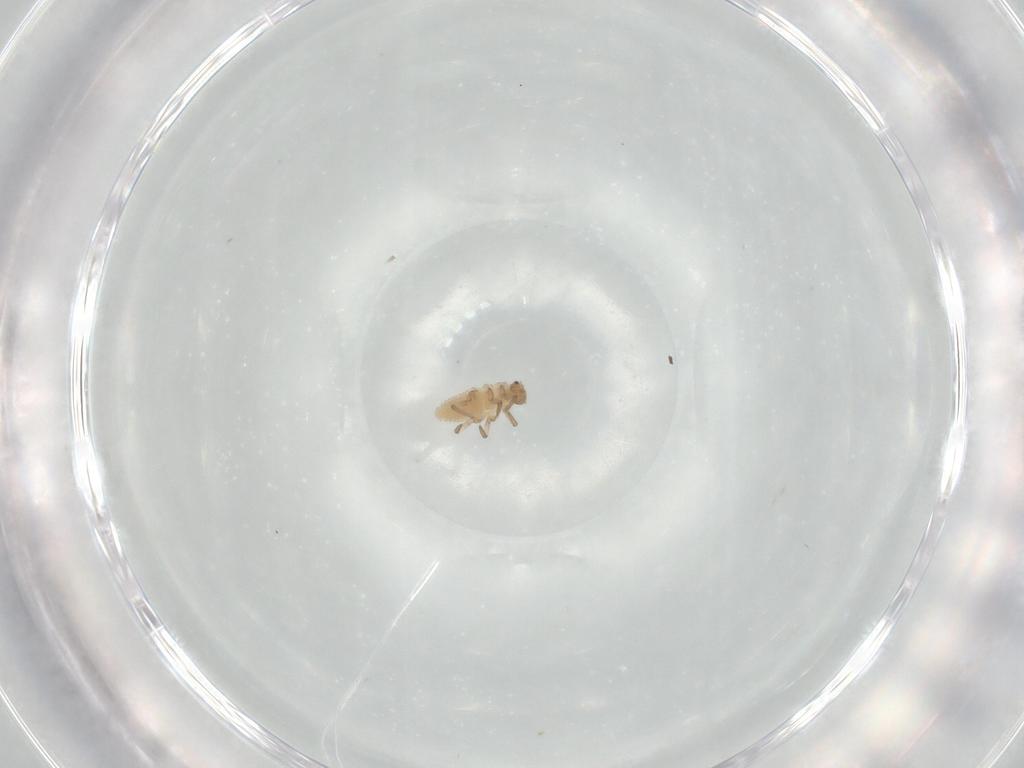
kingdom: Animalia
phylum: Arthropoda
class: Insecta
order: Coleoptera
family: Coccinellidae
